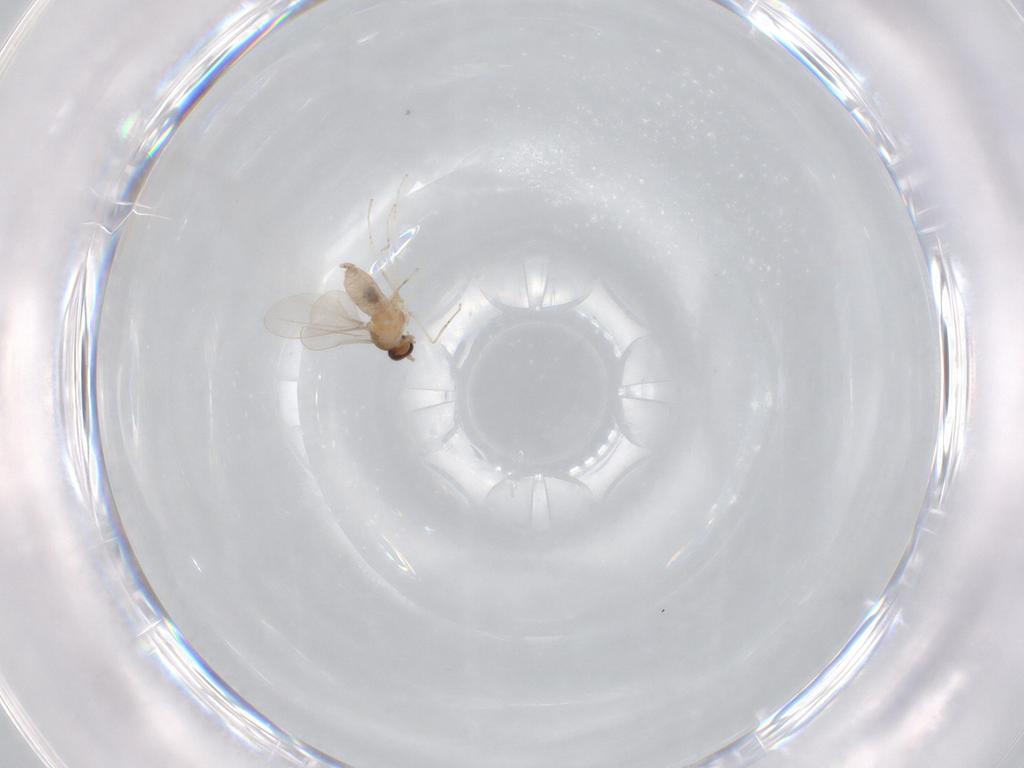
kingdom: Animalia
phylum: Arthropoda
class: Insecta
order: Diptera
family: Cecidomyiidae
